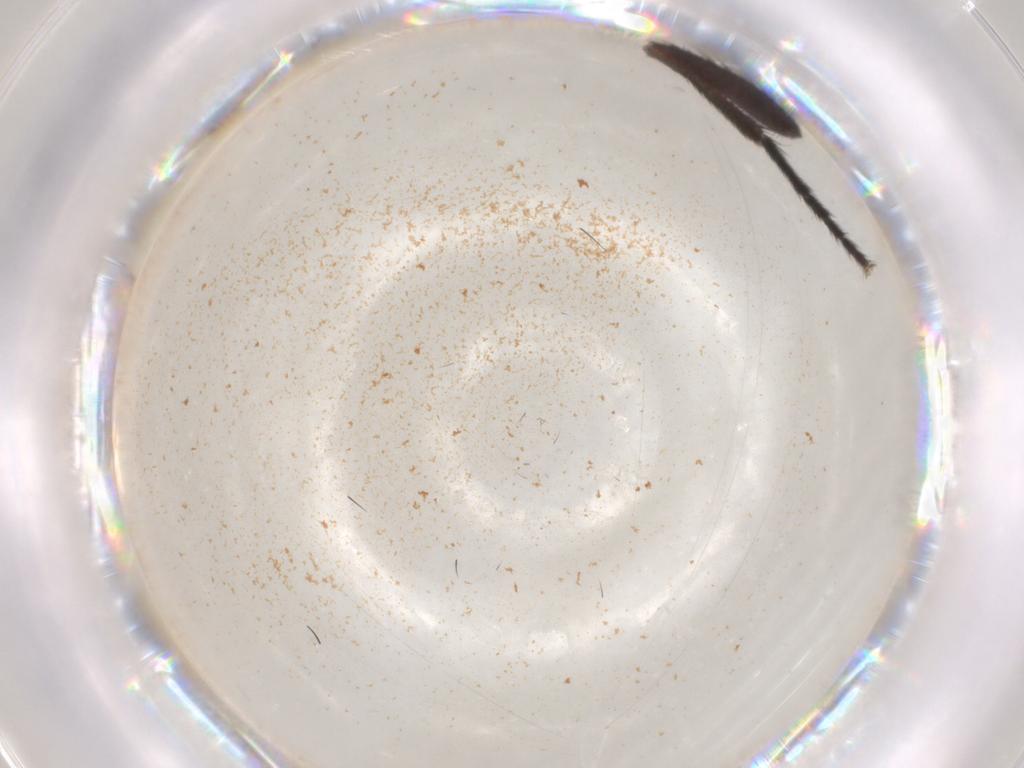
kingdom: Animalia
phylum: Arthropoda
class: Insecta
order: Diptera
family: Muscidae
